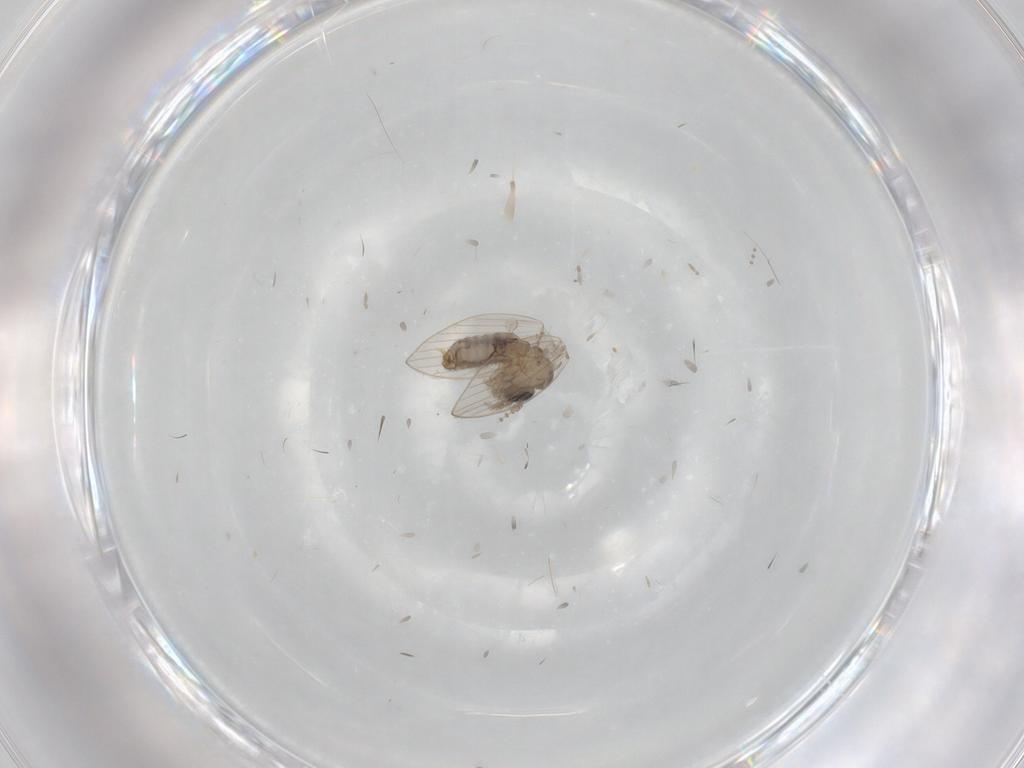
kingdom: Animalia
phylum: Arthropoda
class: Insecta
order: Diptera
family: Psychodidae
